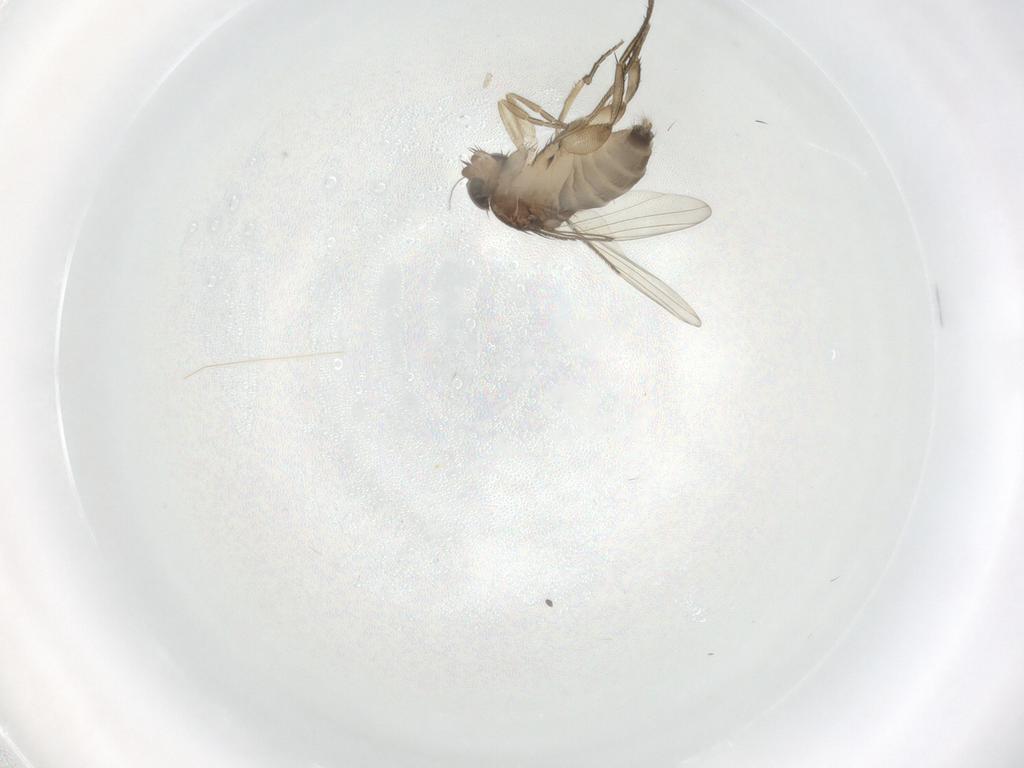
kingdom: Animalia
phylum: Arthropoda
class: Insecta
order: Diptera
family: Phoridae
